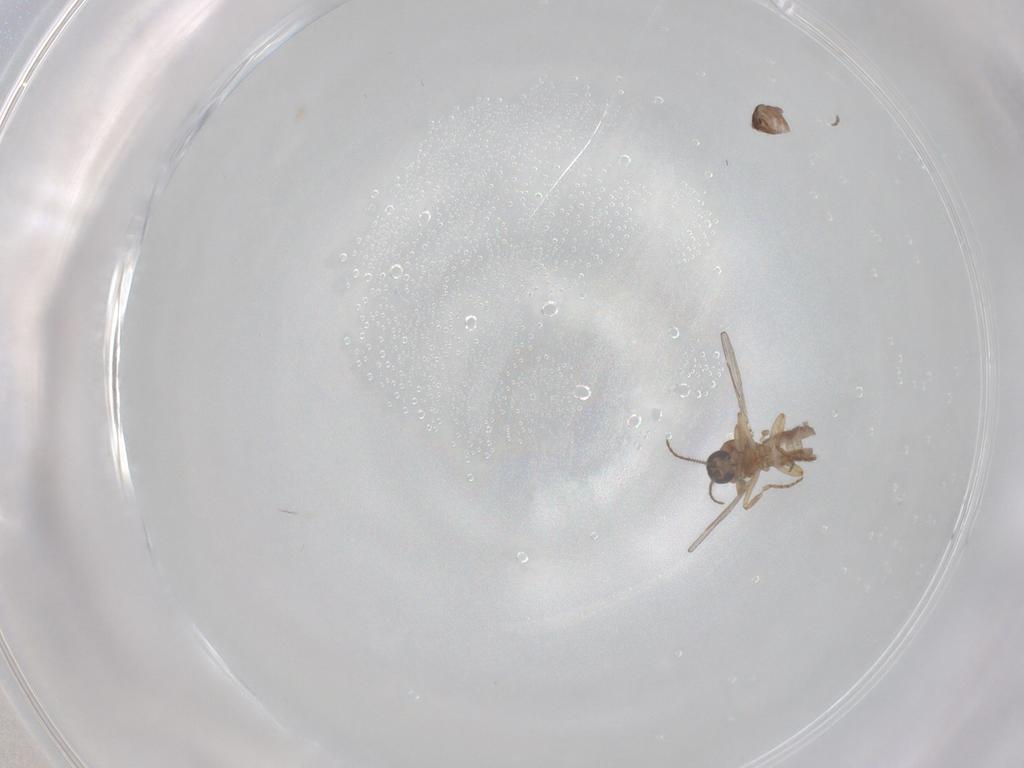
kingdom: Animalia
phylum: Arthropoda
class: Insecta
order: Diptera
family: Ceratopogonidae
